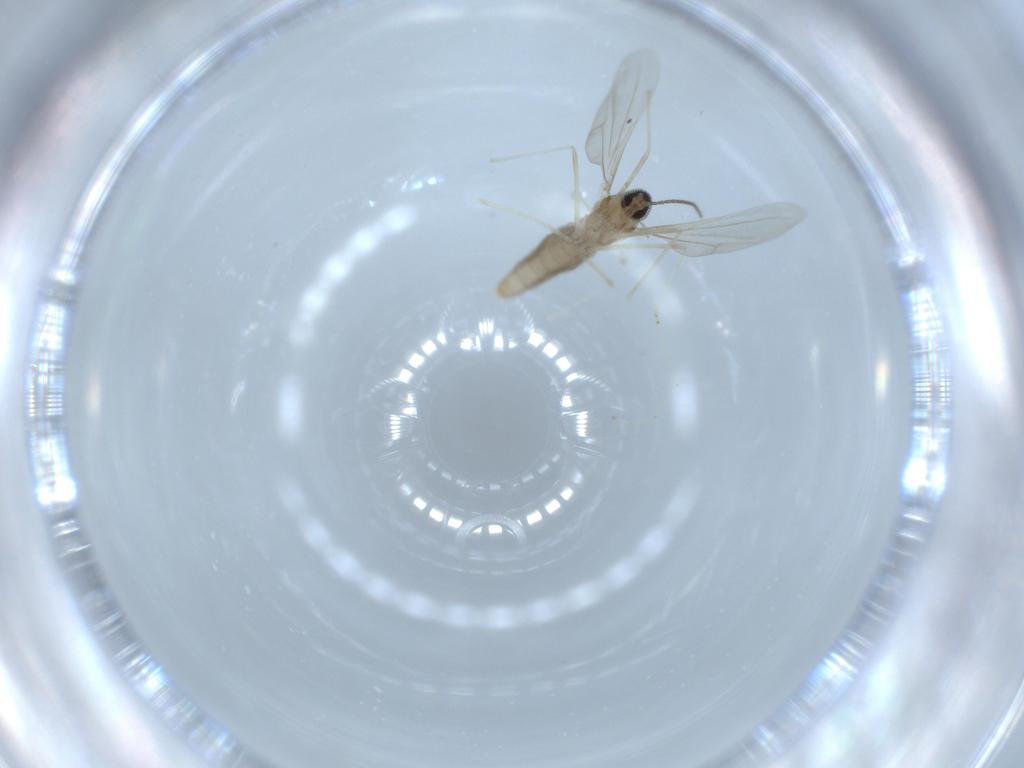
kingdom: Animalia
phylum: Arthropoda
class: Insecta
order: Diptera
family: Cecidomyiidae
